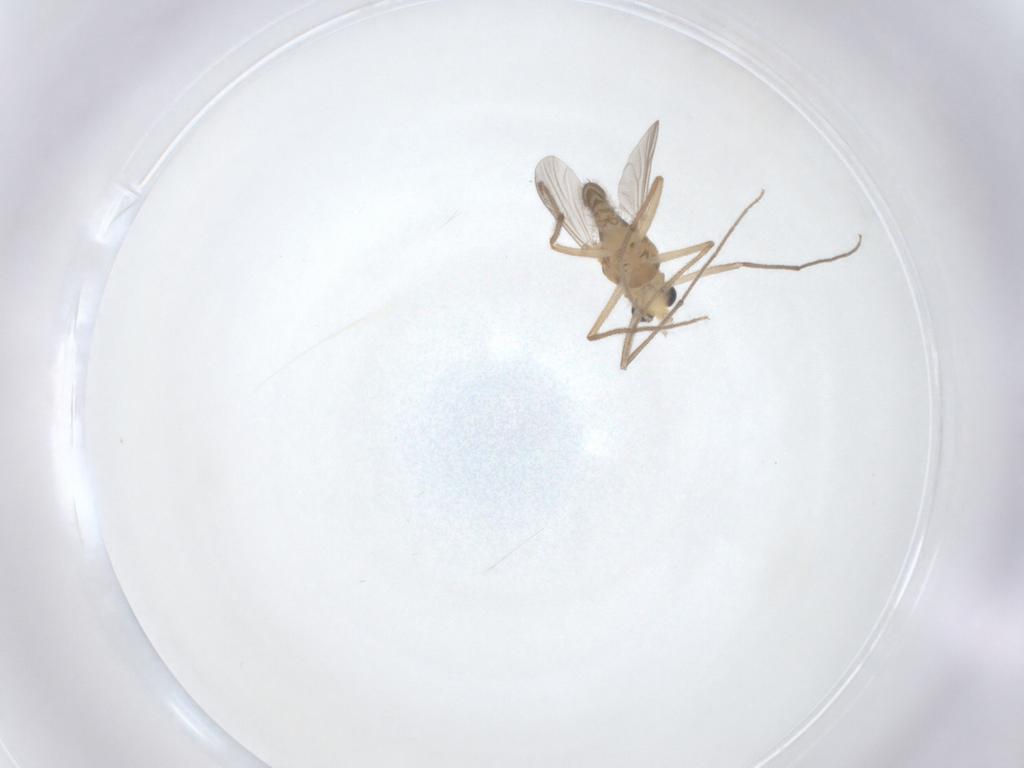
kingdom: Animalia
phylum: Arthropoda
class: Insecta
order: Diptera
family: Chironomidae
